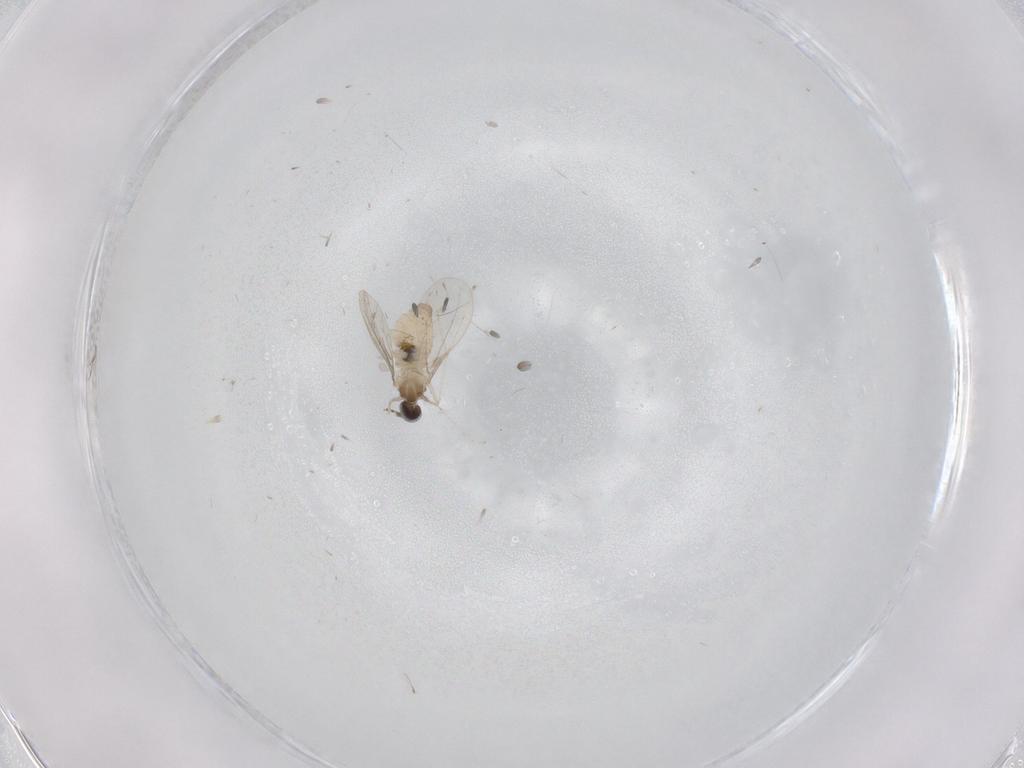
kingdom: Animalia
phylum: Arthropoda
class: Insecta
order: Diptera
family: Cecidomyiidae
